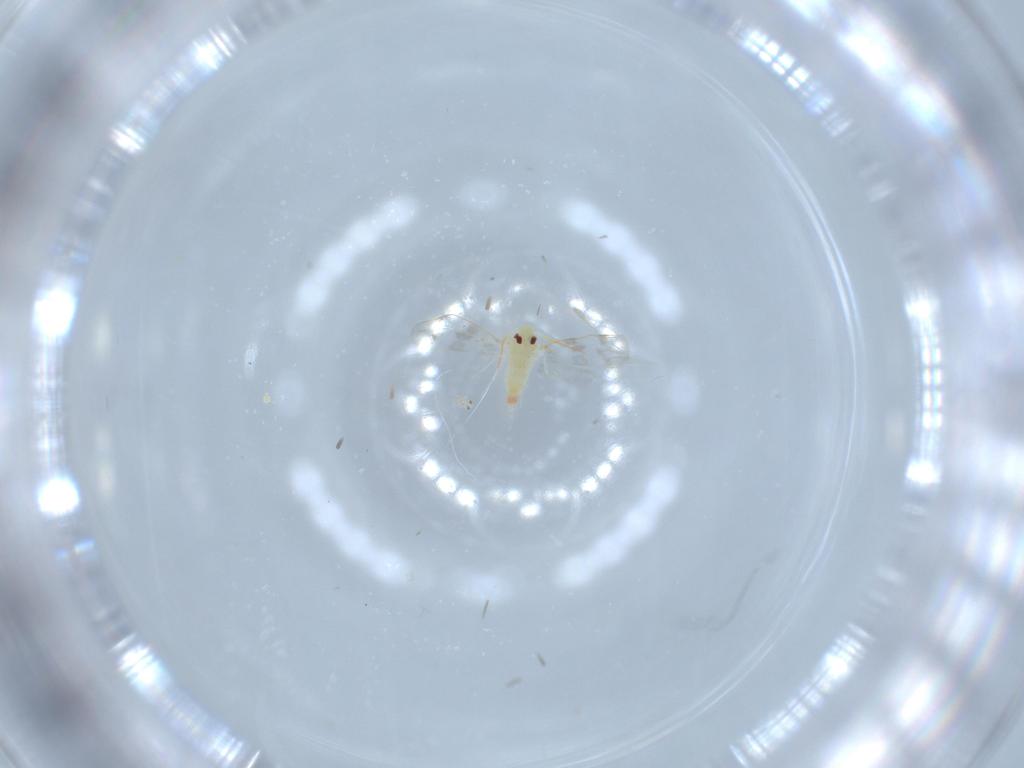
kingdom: Animalia
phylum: Arthropoda
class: Insecta
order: Hemiptera
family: Aleyrodidae
